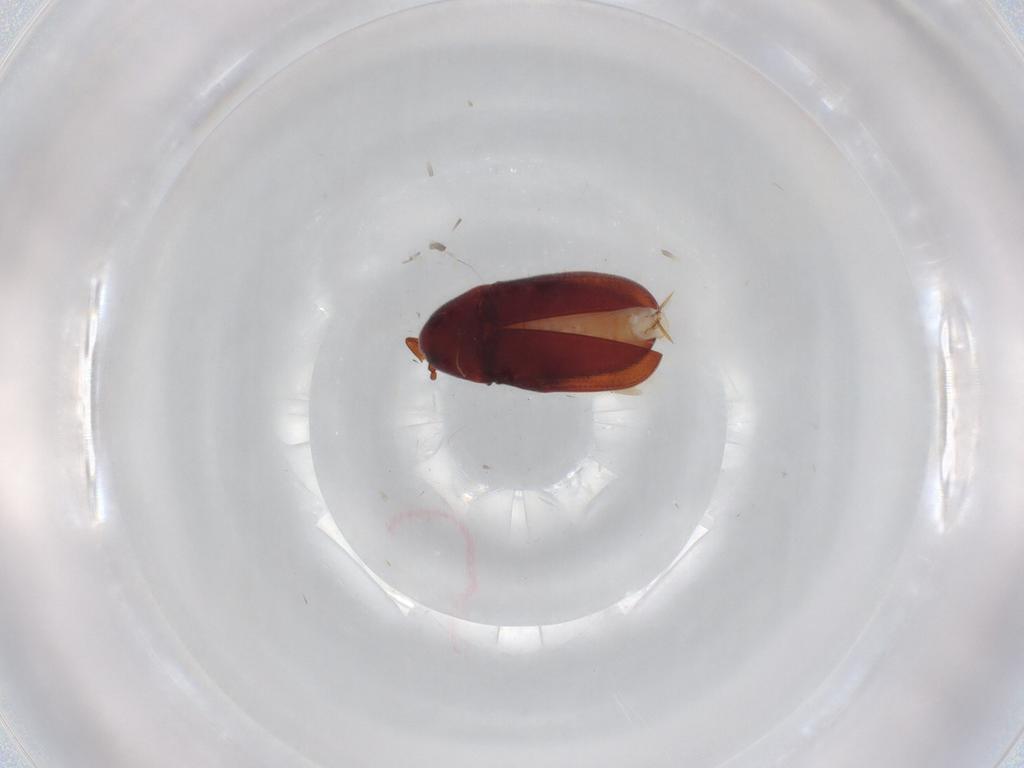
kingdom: Animalia
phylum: Arthropoda
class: Insecta
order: Coleoptera
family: Throscidae
